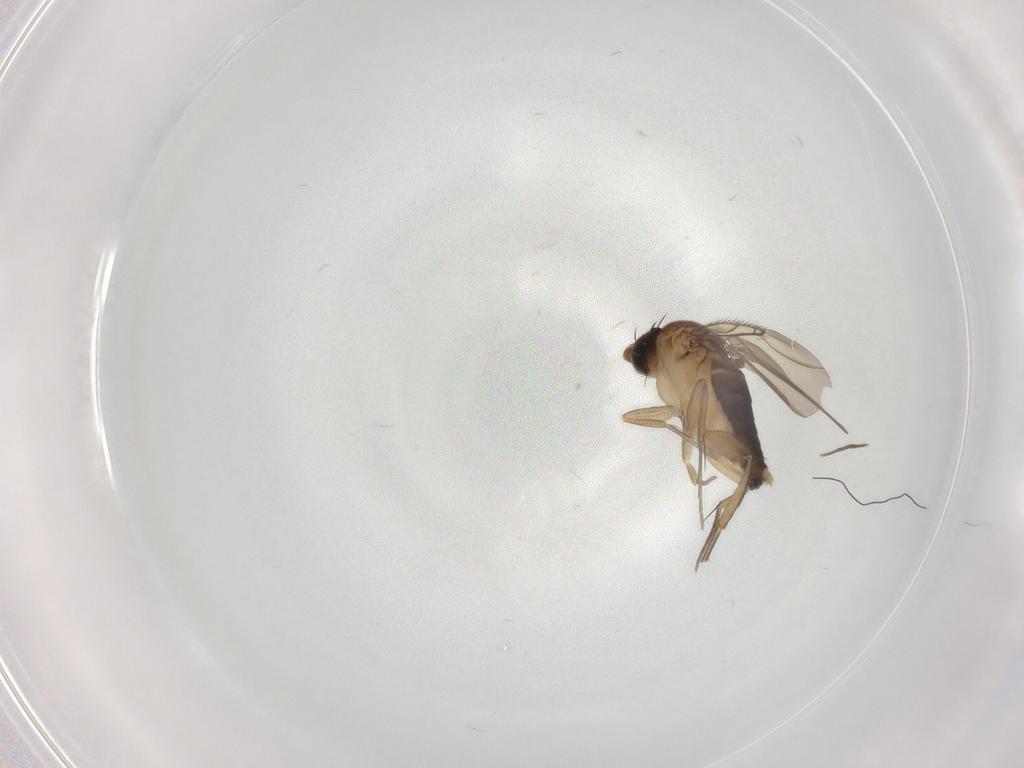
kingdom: Animalia
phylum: Arthropoda
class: Insecta
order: Diptera
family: Phoridae
